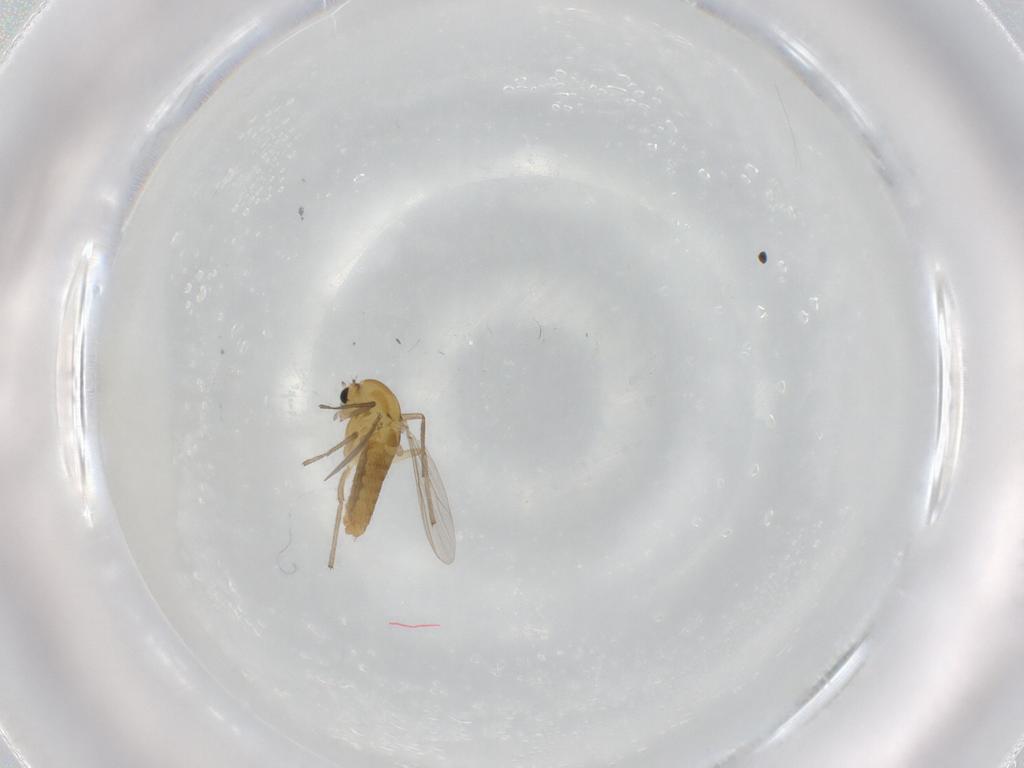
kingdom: Animalia
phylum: Arthropoda
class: Insecta
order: Diptera
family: Chironomidae
